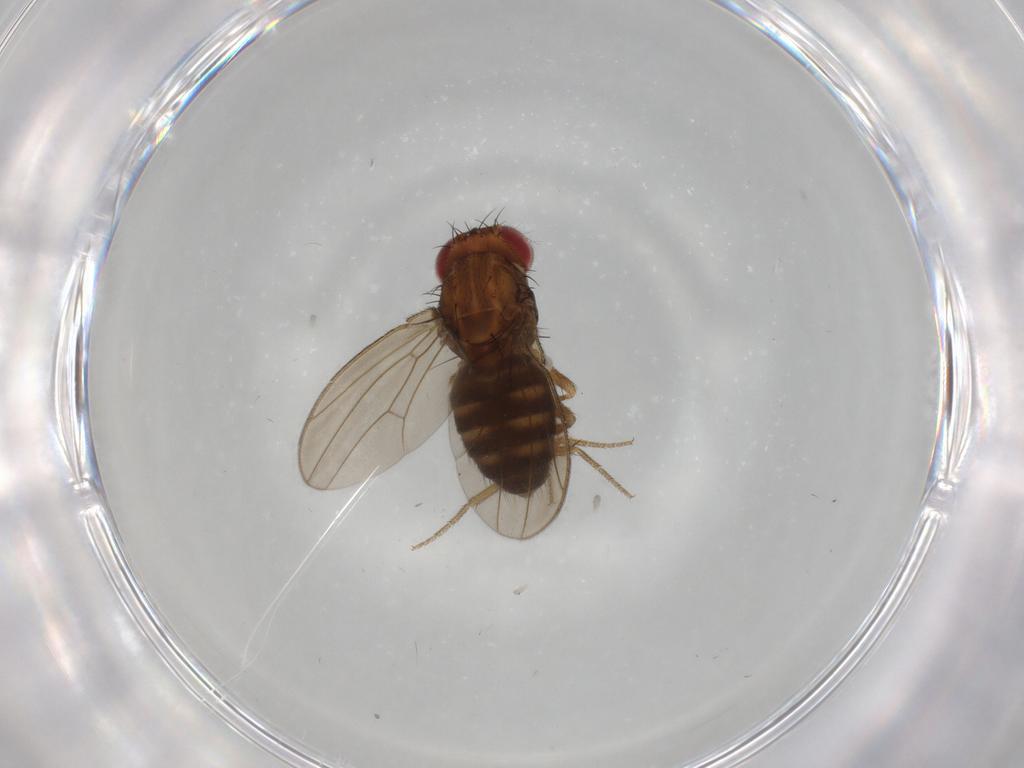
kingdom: Animalia
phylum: Arthropoda
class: Insecta
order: Diptera
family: Drosophilidae
